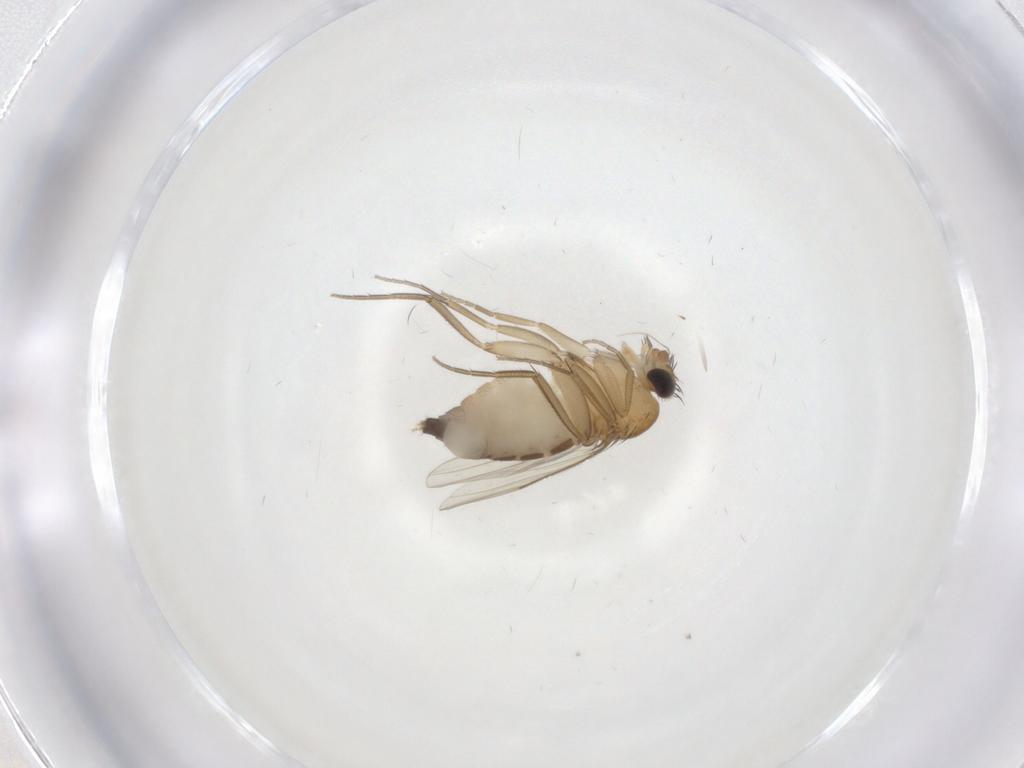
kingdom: Animalia
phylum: Arthropoda
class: Insecta
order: Diptera
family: Phoridae
